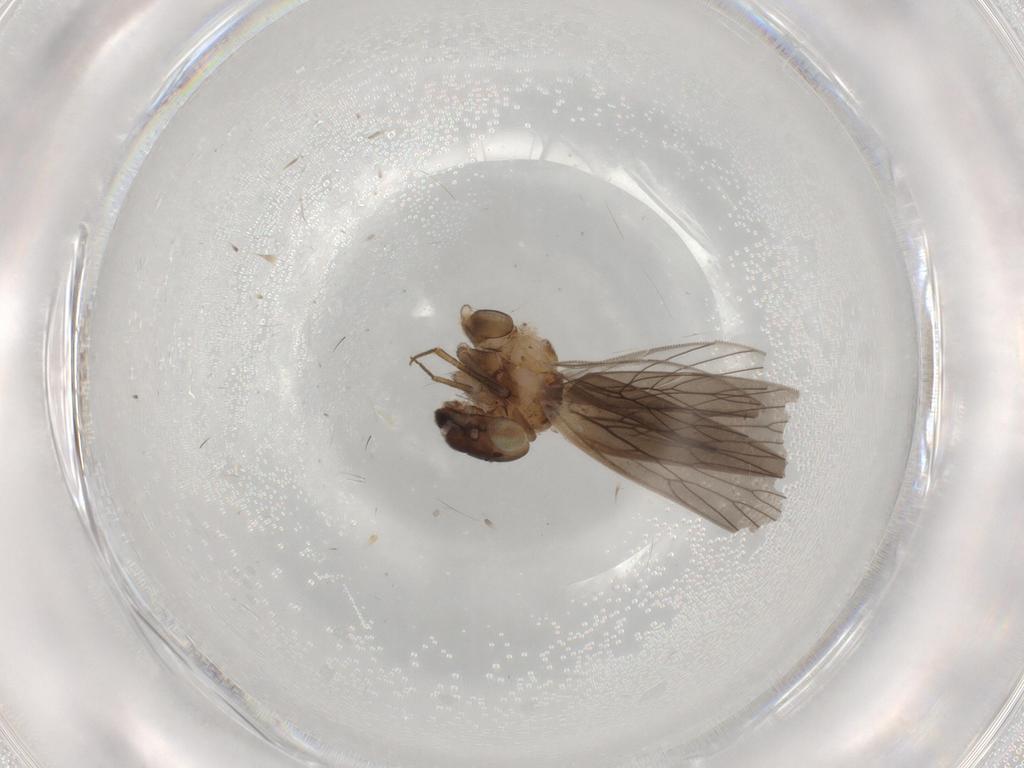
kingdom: Animalia
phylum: Arthropoda
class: Insecta
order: Psocodea
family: Lepidopsocidae
